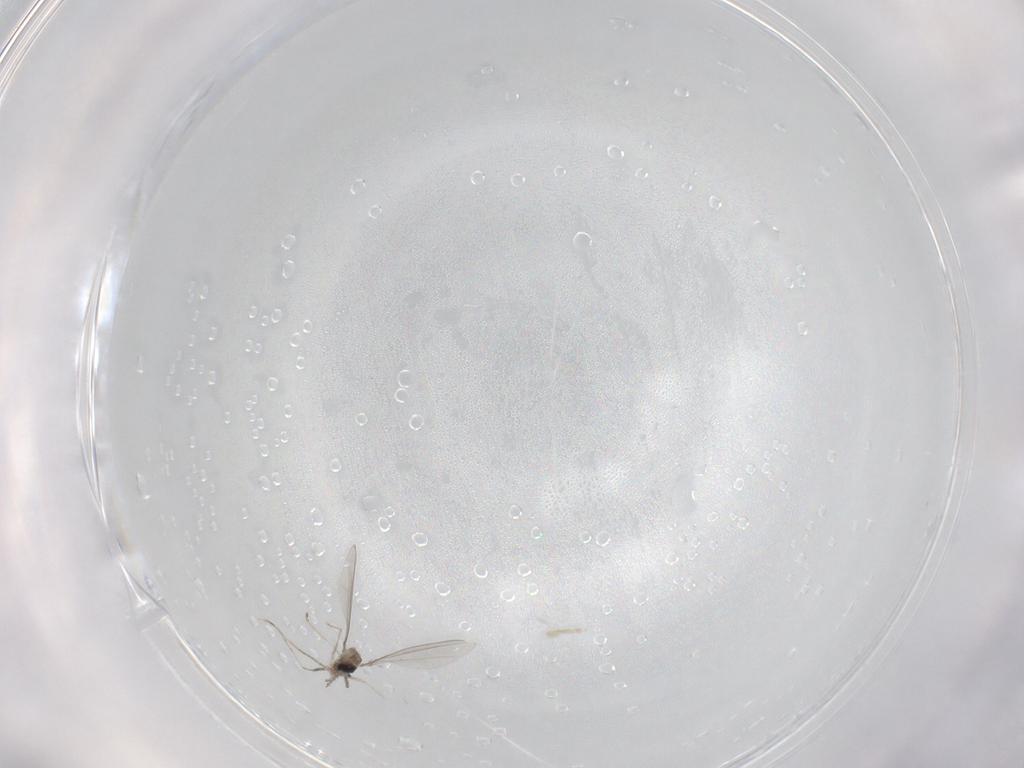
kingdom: Animalia
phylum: Arthropoda
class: Insecta
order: Diptera
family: Cecidomyiidae
